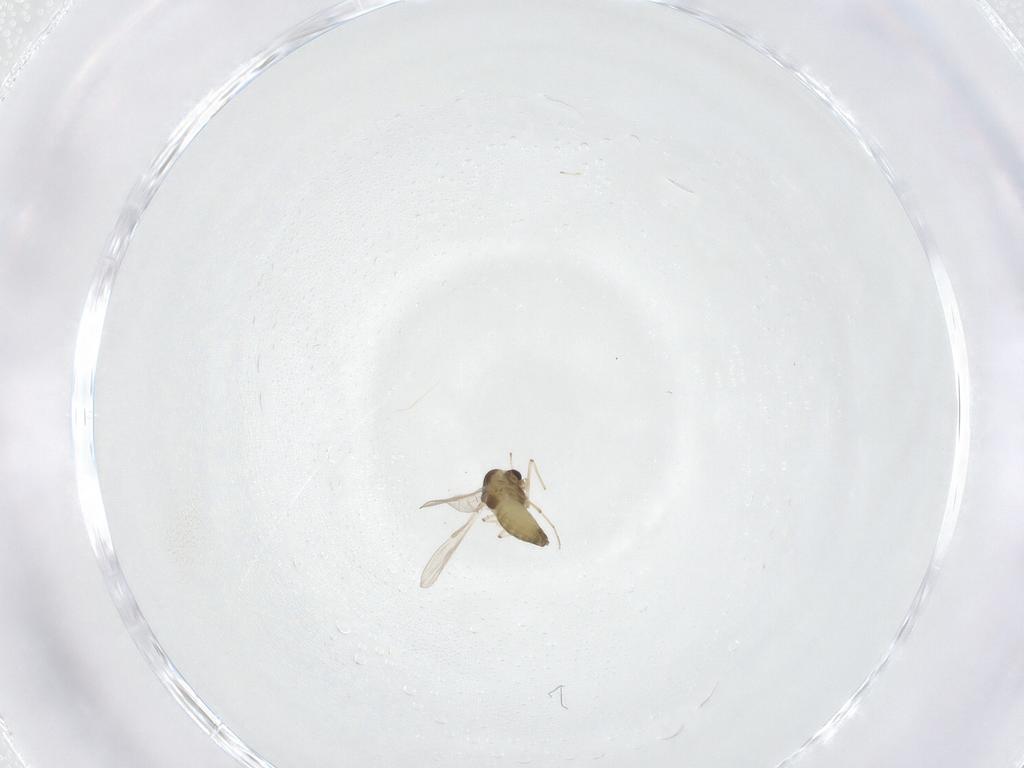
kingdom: Animalia
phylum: Arthropoda
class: Insecta
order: Diptera
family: Chironomidae
